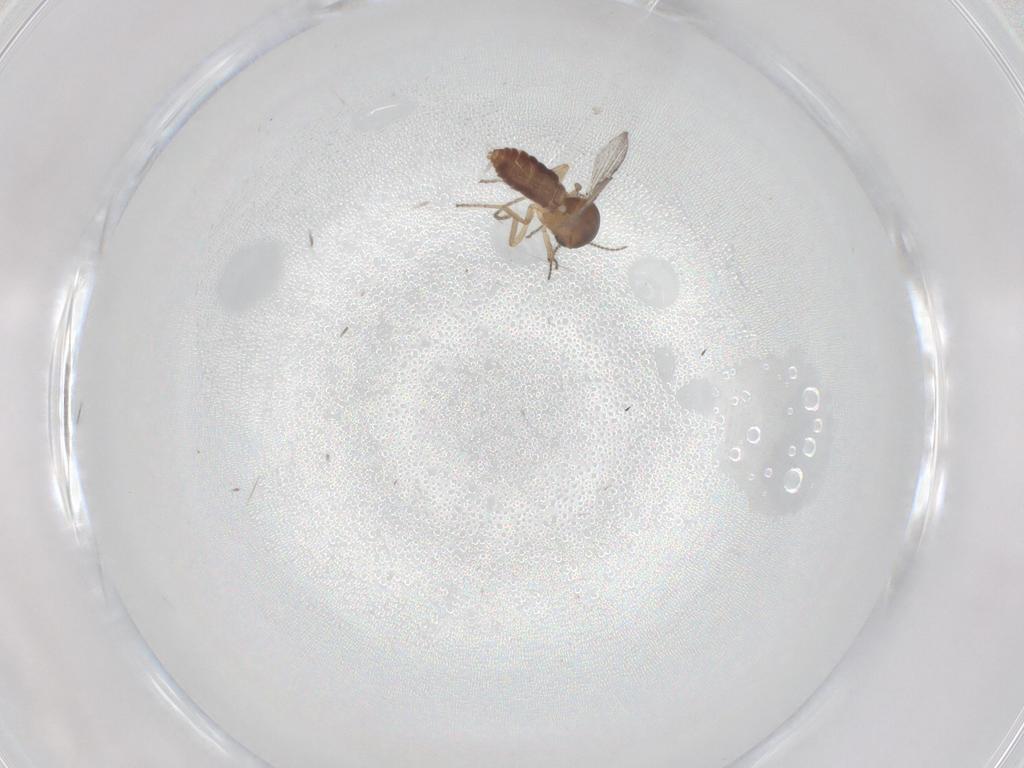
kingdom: Animalia
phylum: Arthropoda
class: Insecta
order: Diptera
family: Ceratopogonidae
